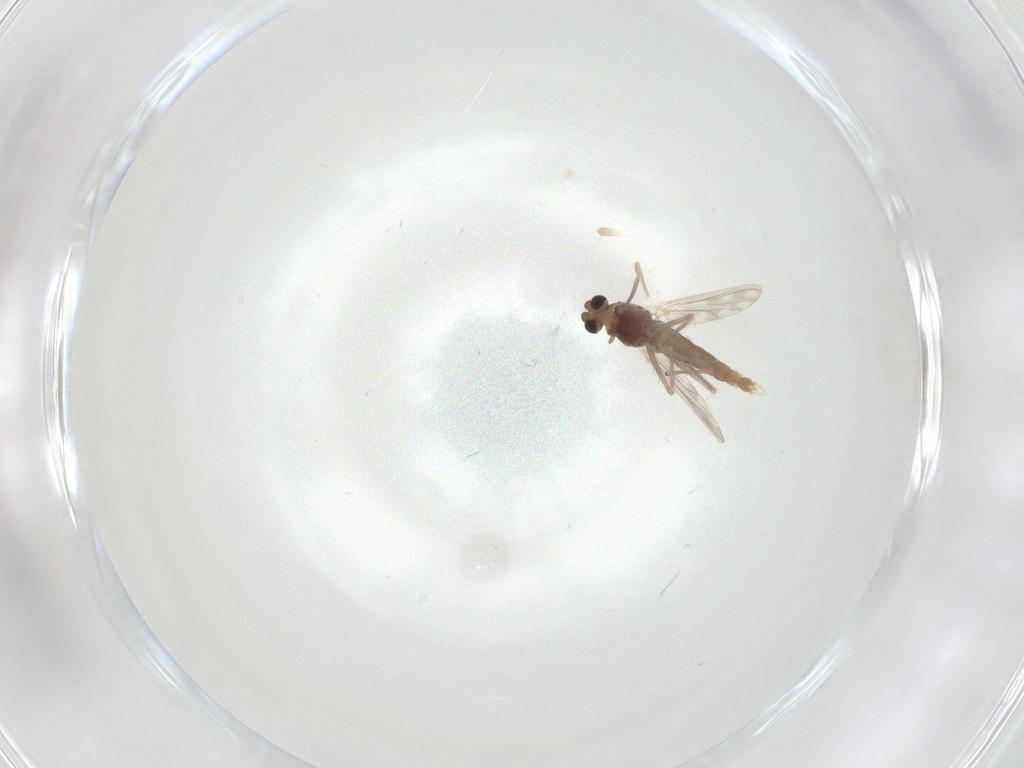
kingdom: Animalia
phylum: Arthropoda
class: Insecta
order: Diptera
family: Chironomidae
